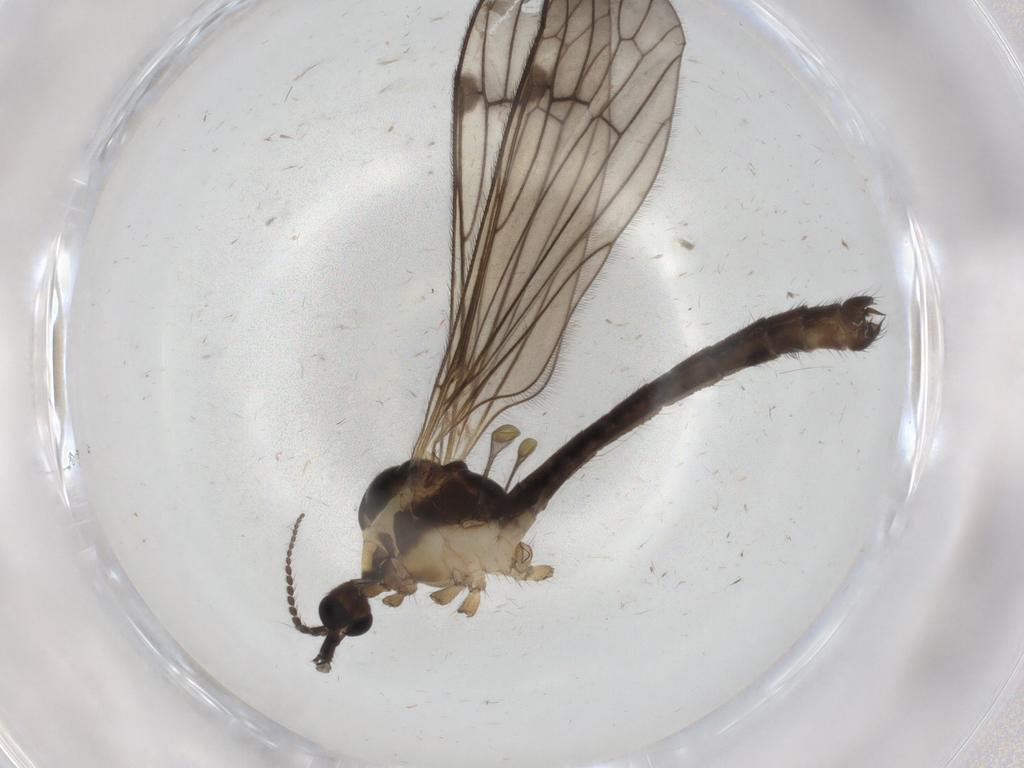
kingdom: Animalia
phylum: Arthropoda
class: Insecta
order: Diptera
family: Limoniidae
